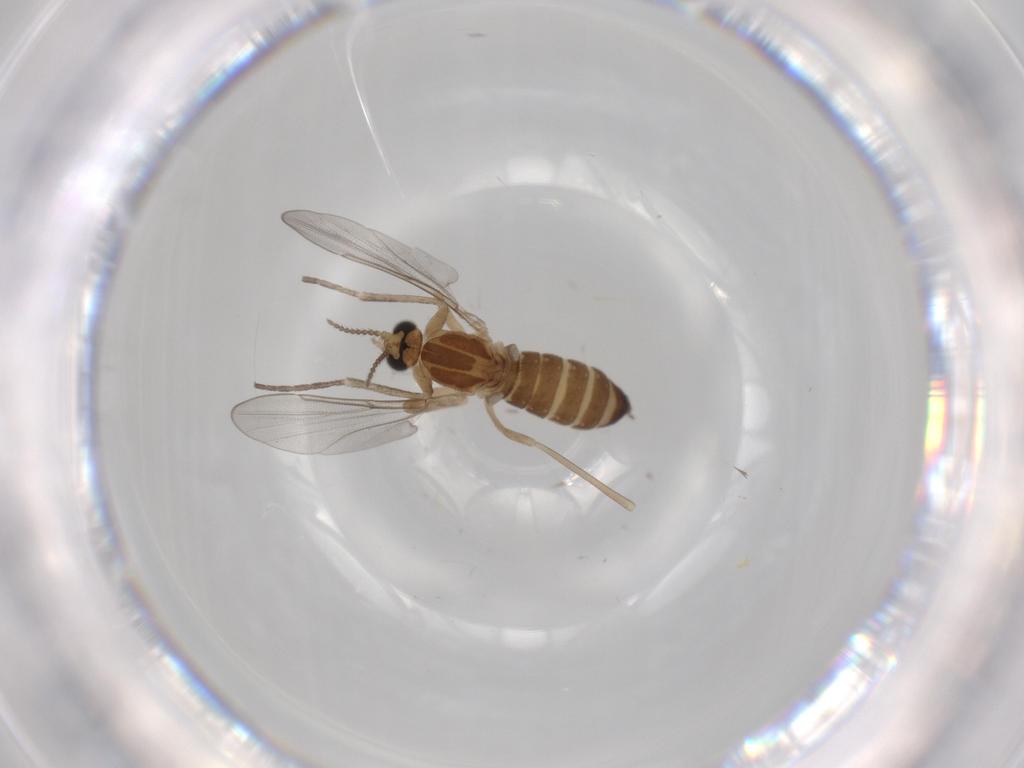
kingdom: Animalia
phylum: Arthropoda
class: Insecta
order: Diptera
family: Cecidomyiidae
